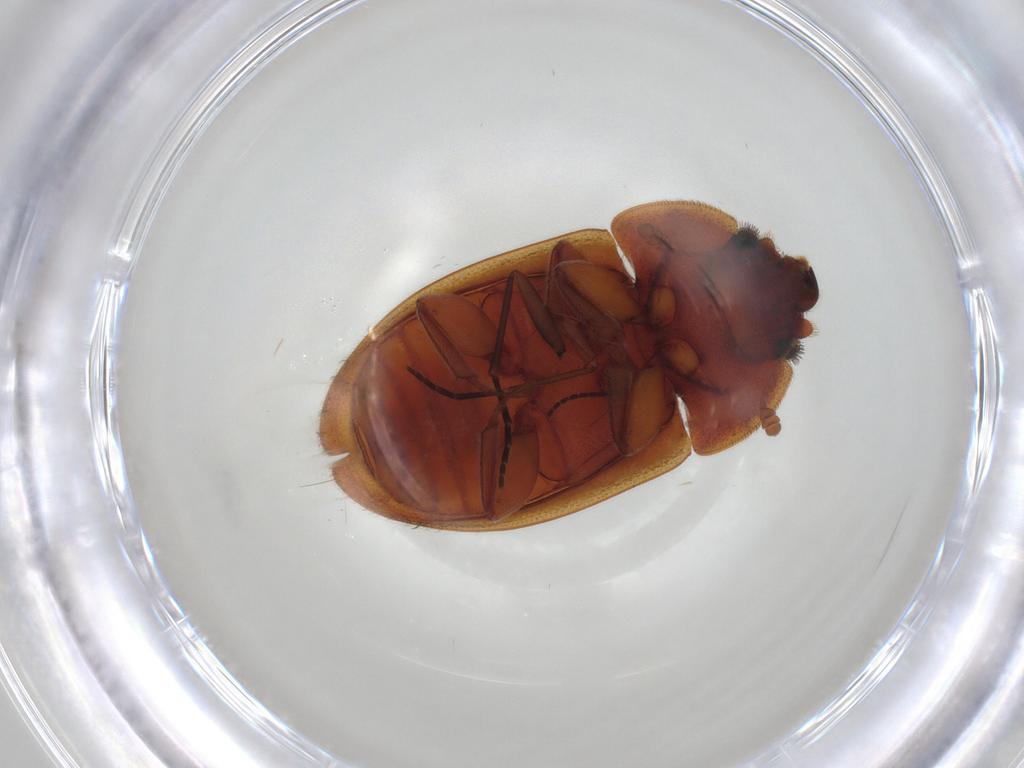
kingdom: Animalia
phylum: Arthropoda
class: Insecta
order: Coleoptera
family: Nitidulidae
